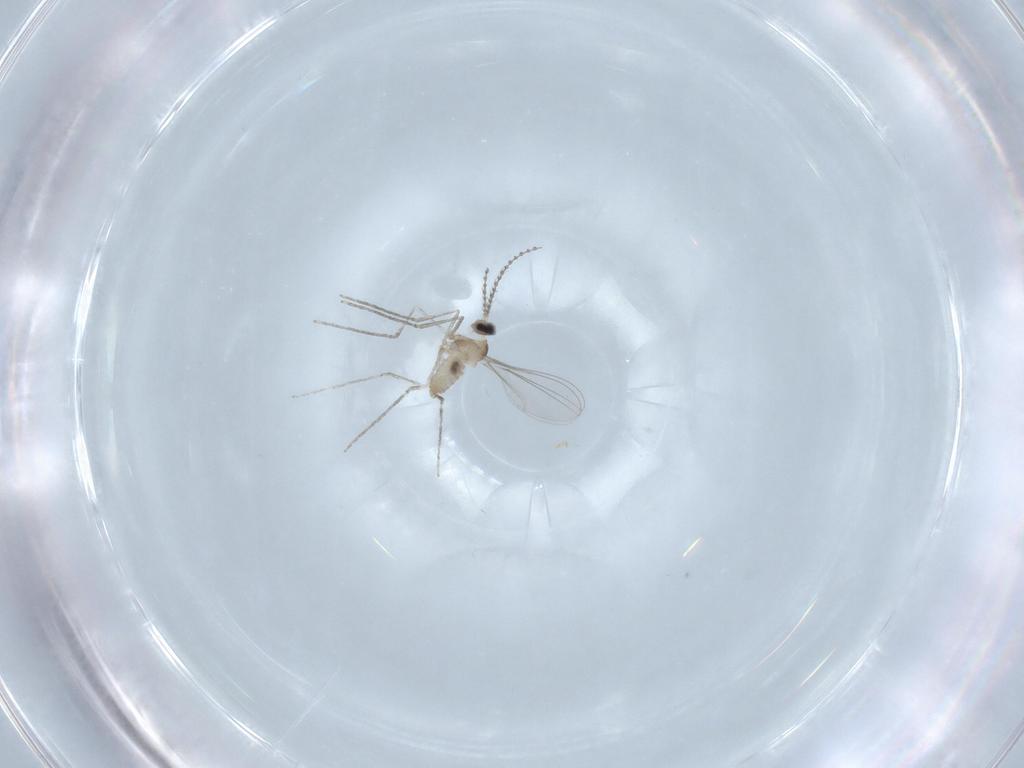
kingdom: Animalia
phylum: Arthropoda
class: Insecta
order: Diptera
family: Cecidomyiidae
